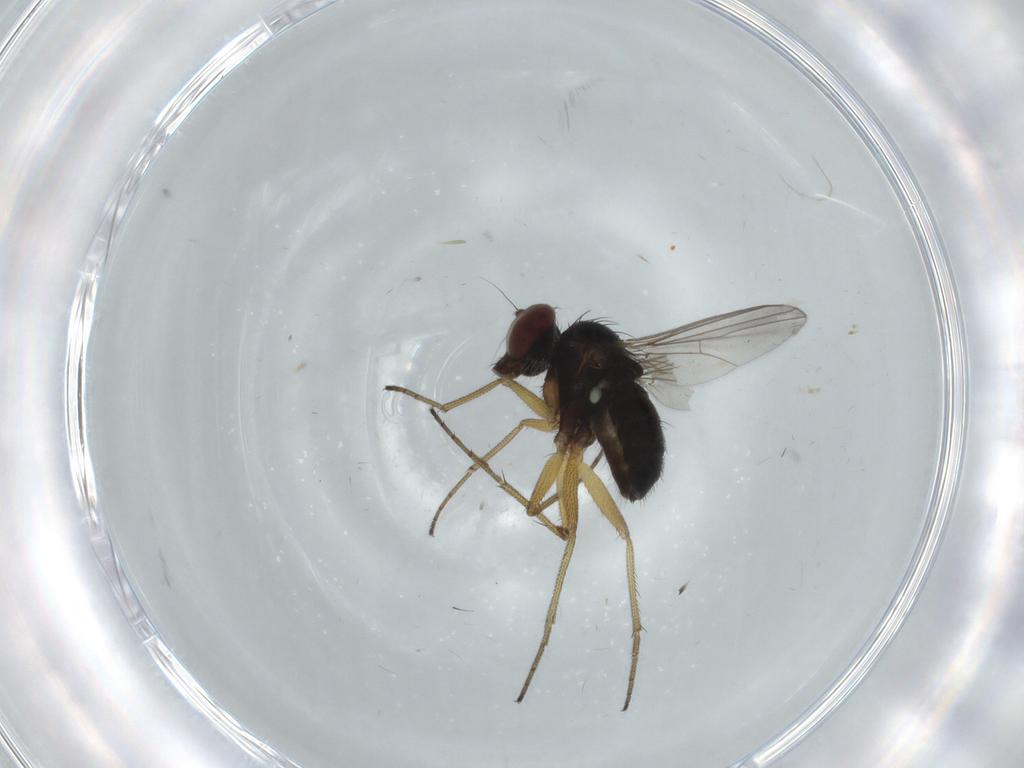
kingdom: Animalia
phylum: Arthropoda
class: Insecta
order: Diptera
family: Dolichopodidae
